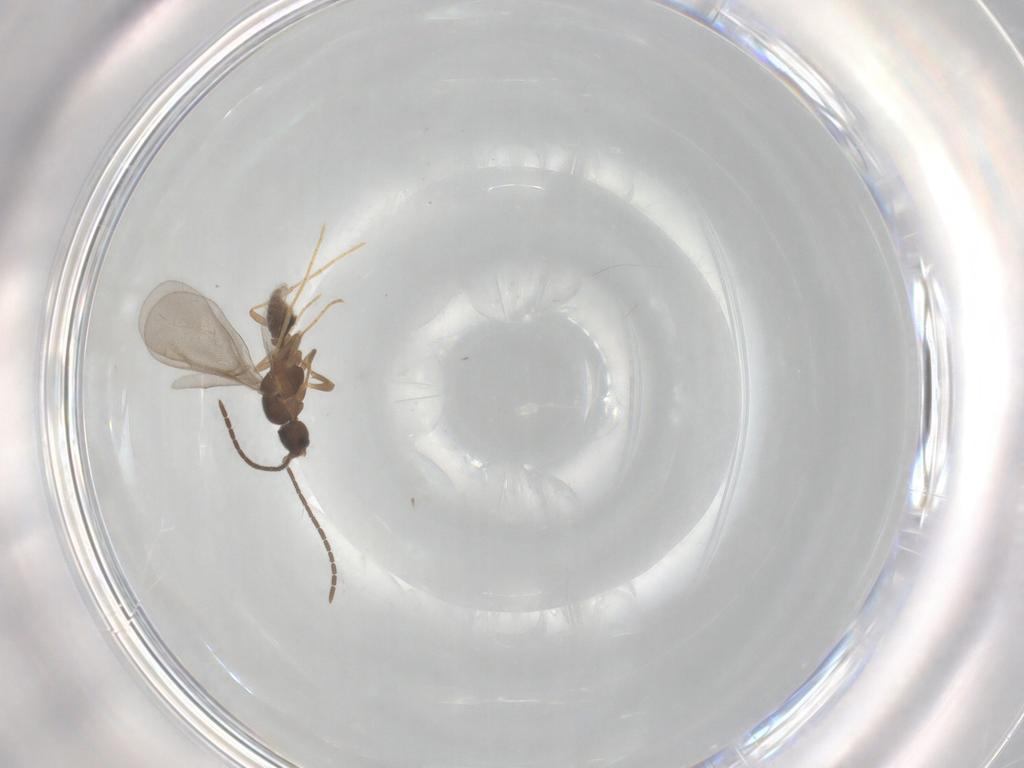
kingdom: Animalia
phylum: Arthropoda
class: Insecta
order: Hymenoptera
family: Formicidae
